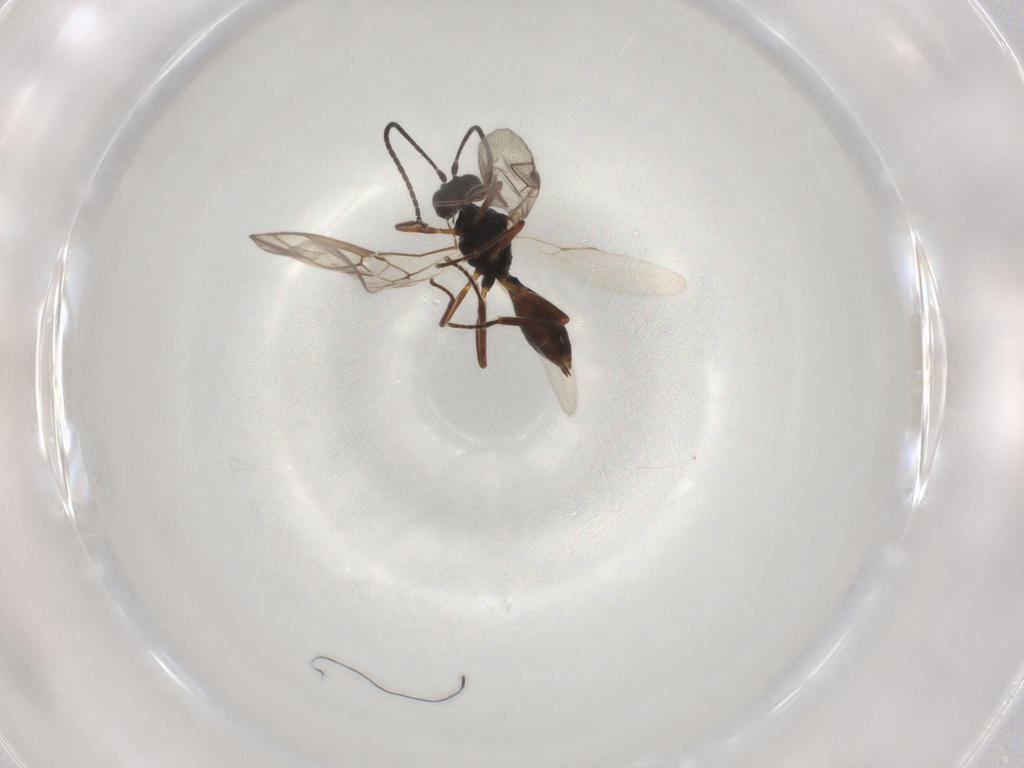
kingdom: Animalia
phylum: Arthropoda
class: Insecta
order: Hymenoptera
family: Braconidae
